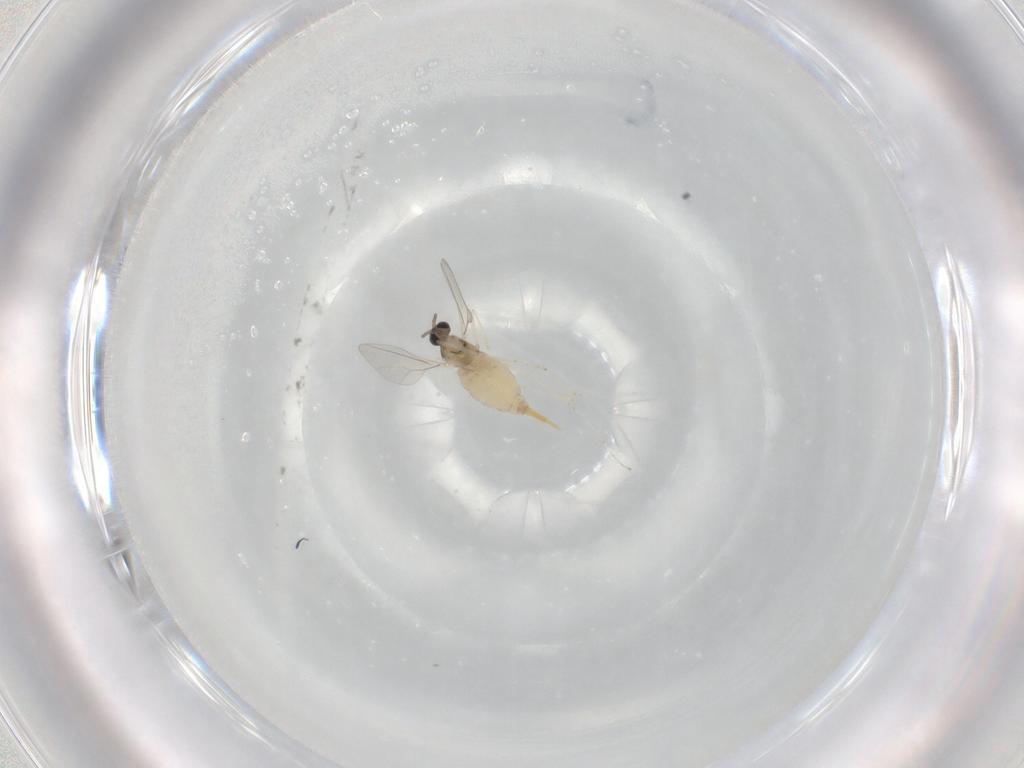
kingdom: Animalia
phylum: Arthropoda
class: Insecta
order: Diptera
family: Cecidomyiidae
